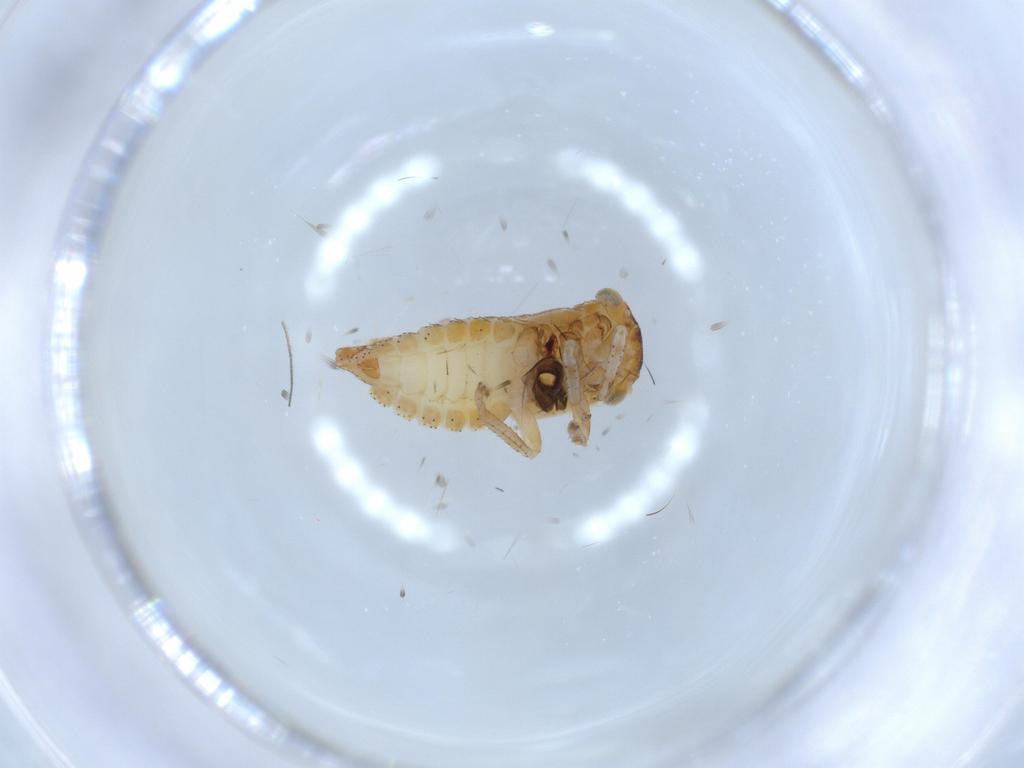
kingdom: Animalia
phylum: Arthropoda
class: Insecta
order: Hemiptera
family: Cicadellidae
